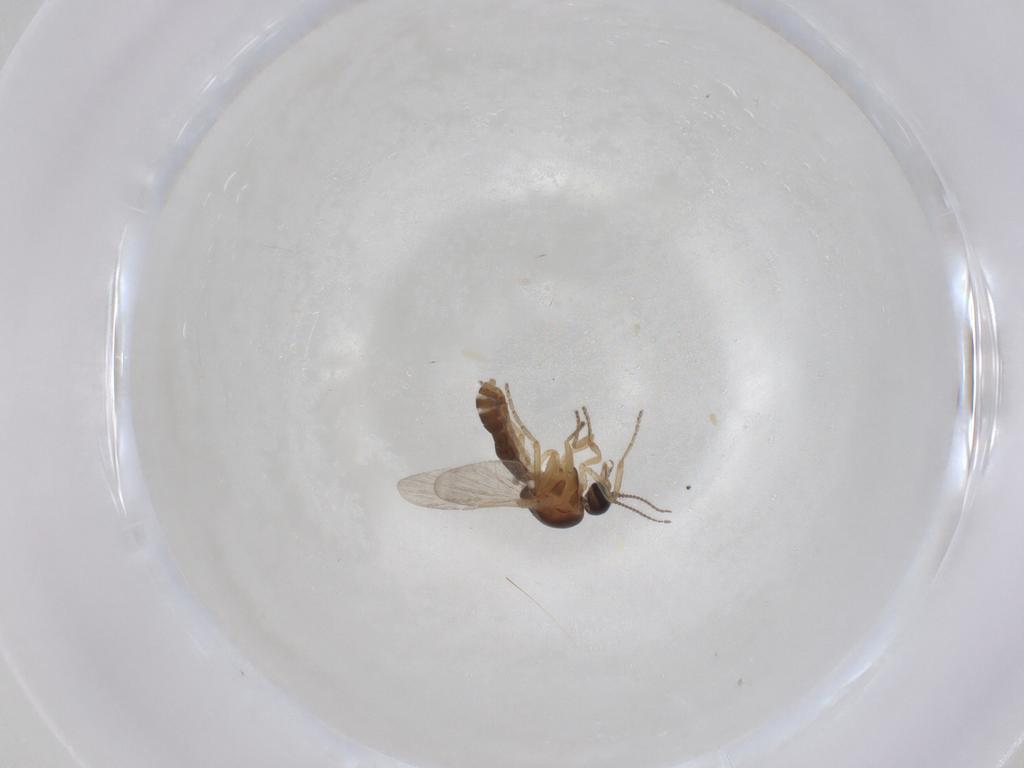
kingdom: Animalia
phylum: Arthropoda
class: Insecta
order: Diptera
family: Ceratopogonidae
